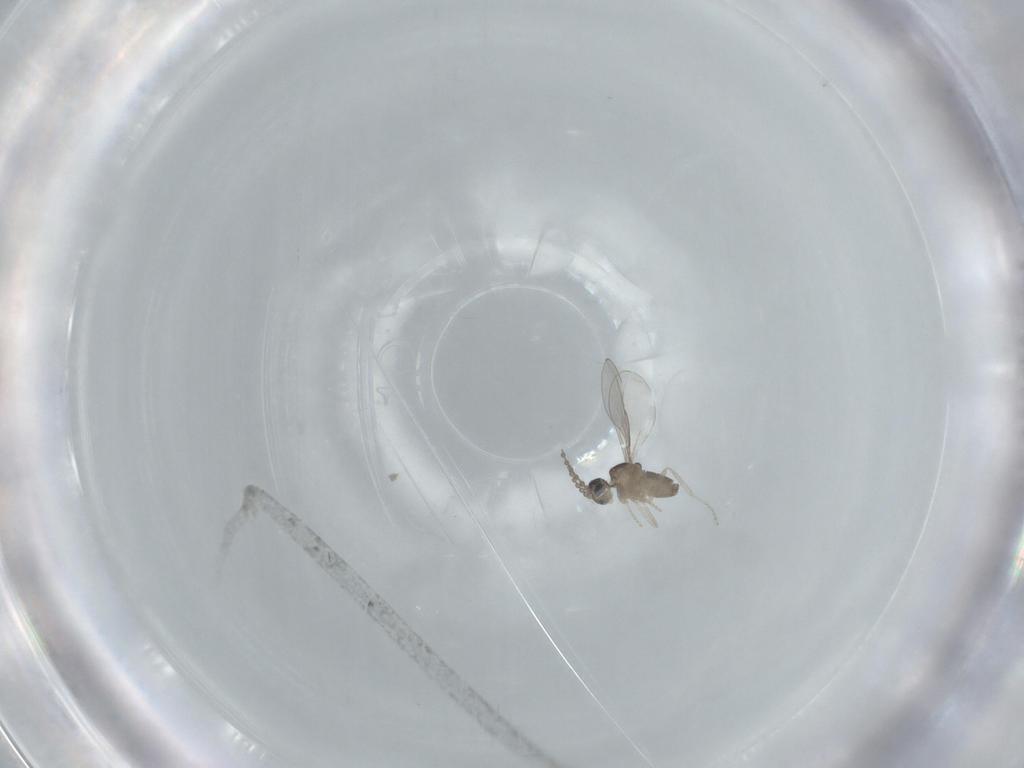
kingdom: Animalia
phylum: Arthropoda
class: Insecta
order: Diptera
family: Cecidomyiidae
